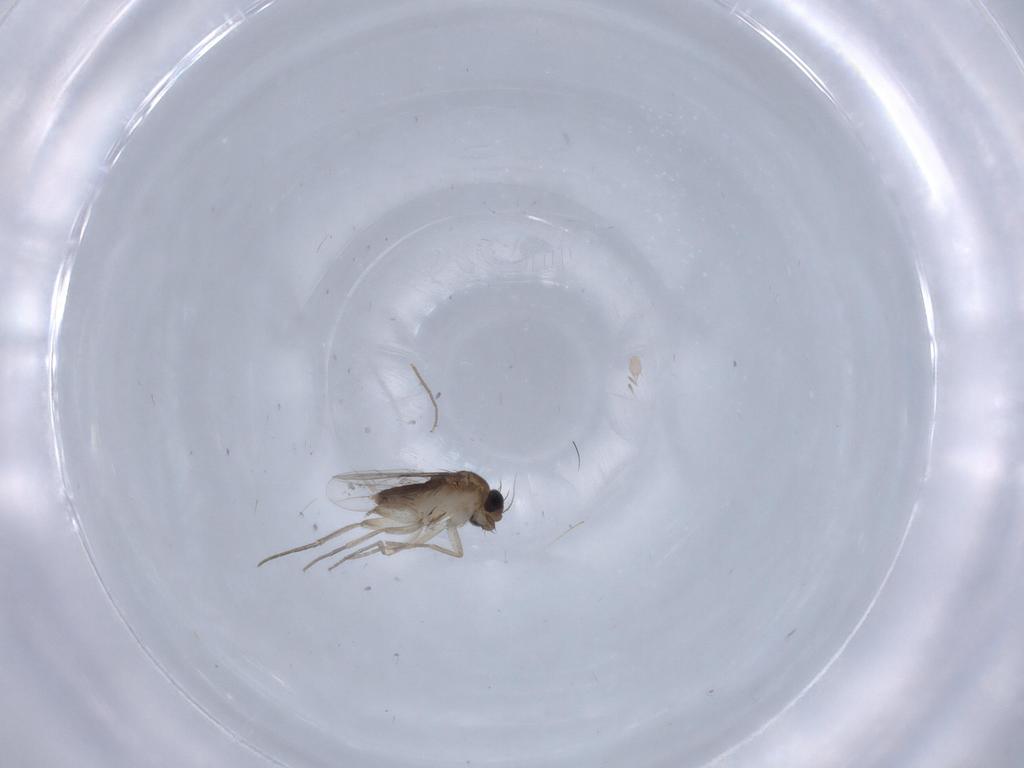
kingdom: Animalia
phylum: Arthropoda
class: Insecta
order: Diptera
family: Phoridae
